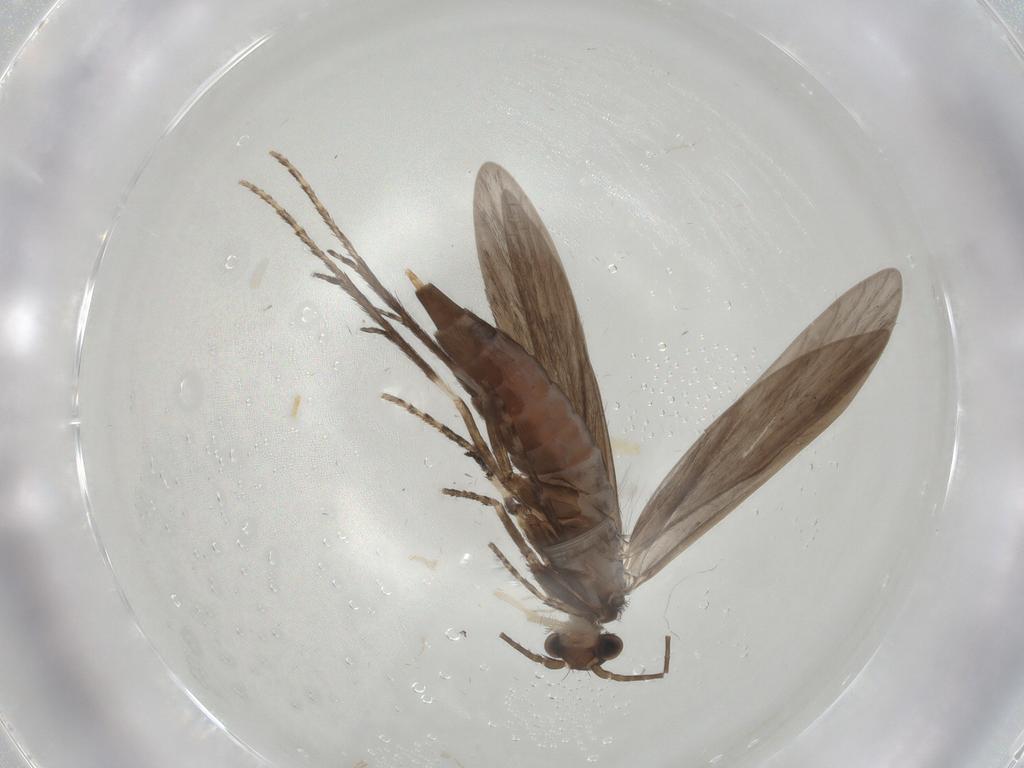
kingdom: Animalia
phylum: Arthropoda
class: Insecta
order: Trichoptera
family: Xiphocentronidae
